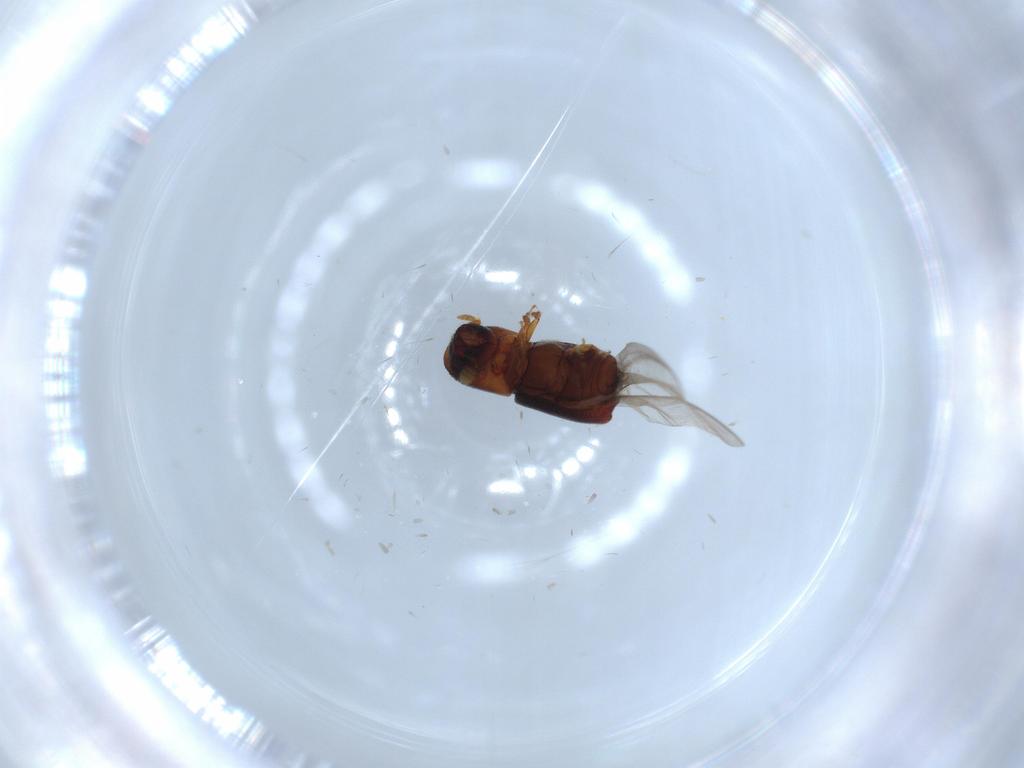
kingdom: Animalia
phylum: Arthropoda
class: Insecta
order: Coleoptera
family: Curculionidae
